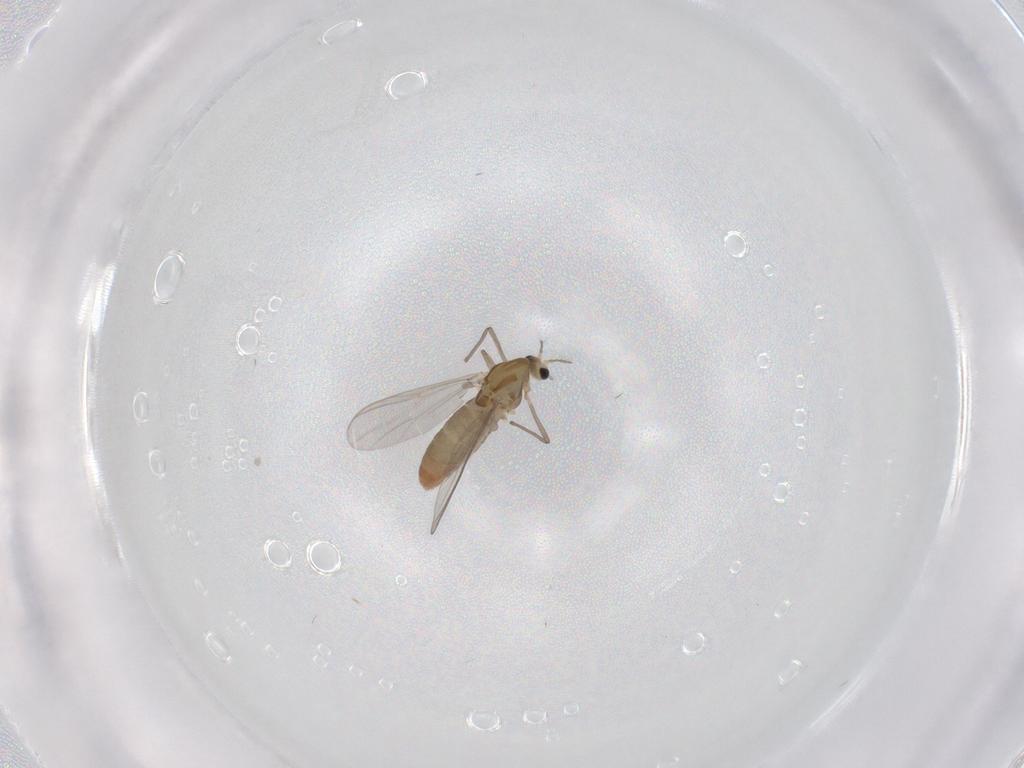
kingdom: Animalia
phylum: Arthropoda
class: Insecta
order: Diptera
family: Chironomidae
